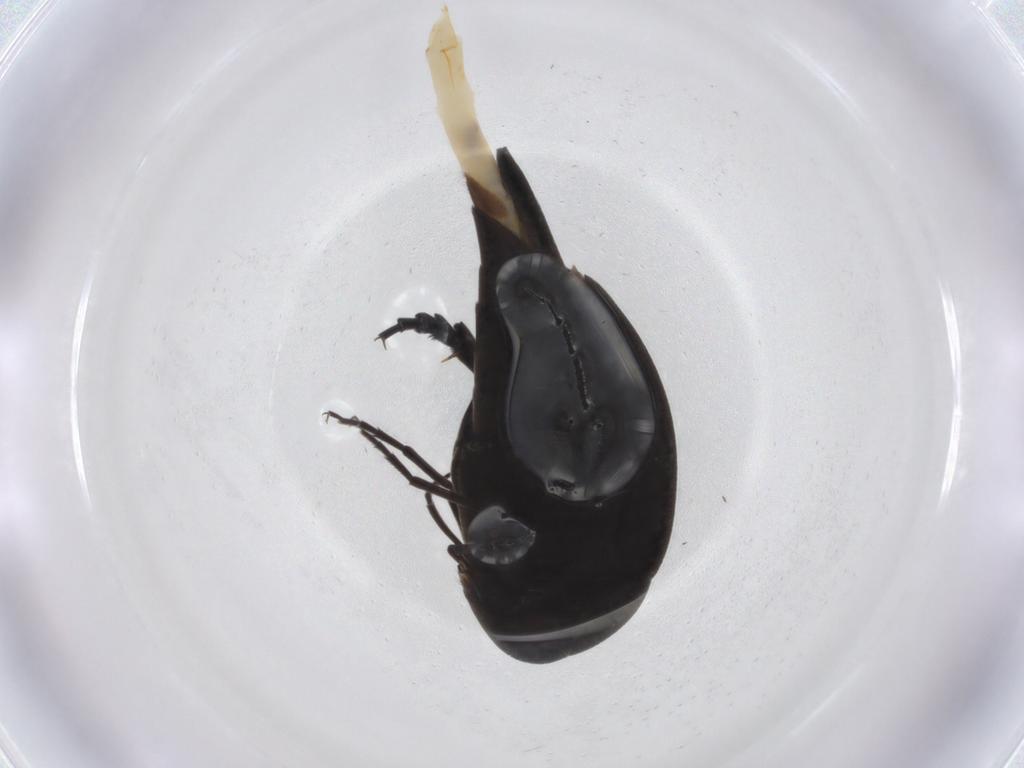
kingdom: Animalia
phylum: Arthropoda
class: Insecta
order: Coleoptera
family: Mordellidae
